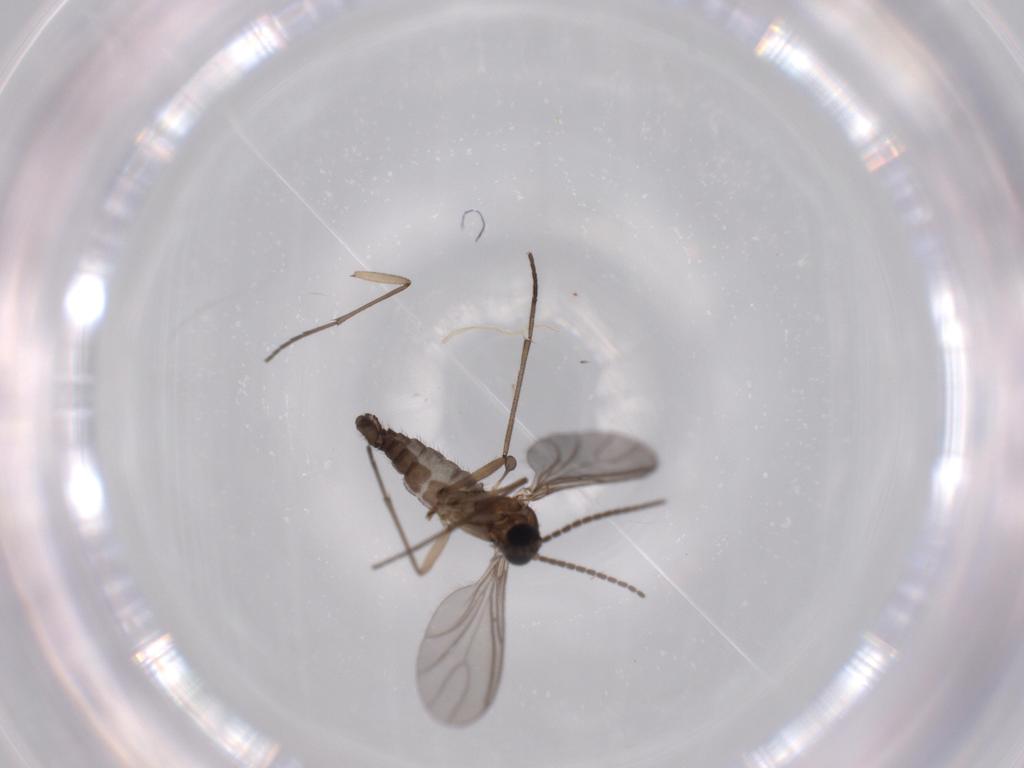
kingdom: Animalia
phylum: Arthropoda
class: Insecta
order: Diptera
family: Sciaridae
